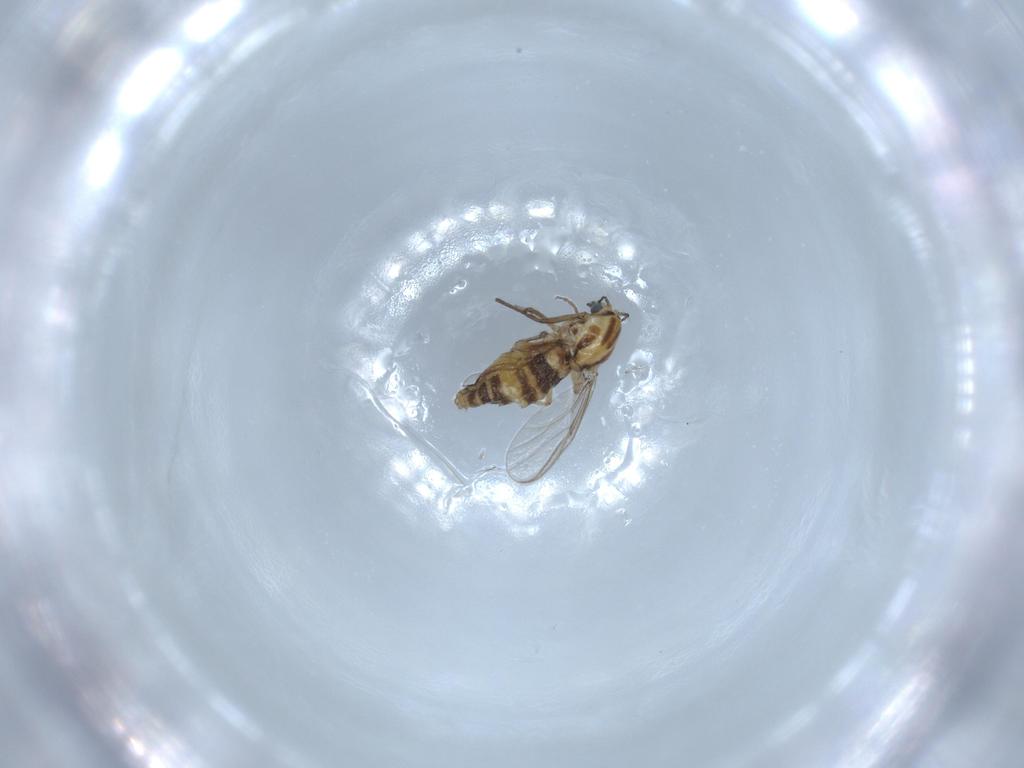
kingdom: Animalia
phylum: Arthropoda
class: Insecta
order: Diptera
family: Chironomidae
